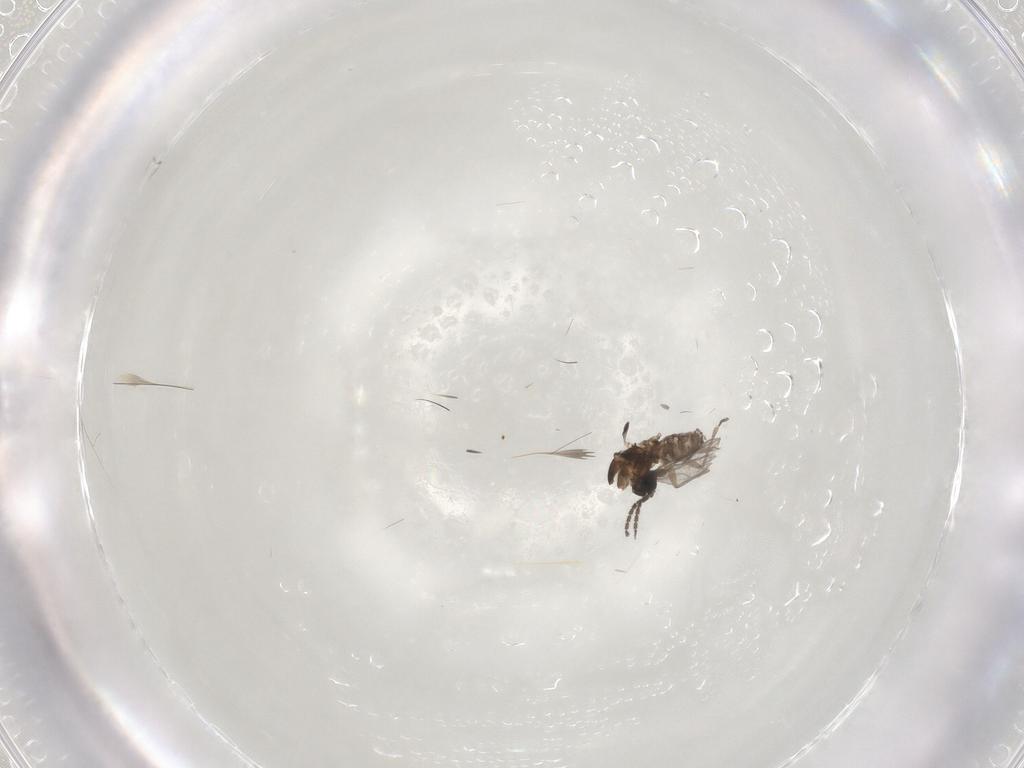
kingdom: Animalia
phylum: Arthropoda
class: Insecta
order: Diptera
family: Sciaridae
